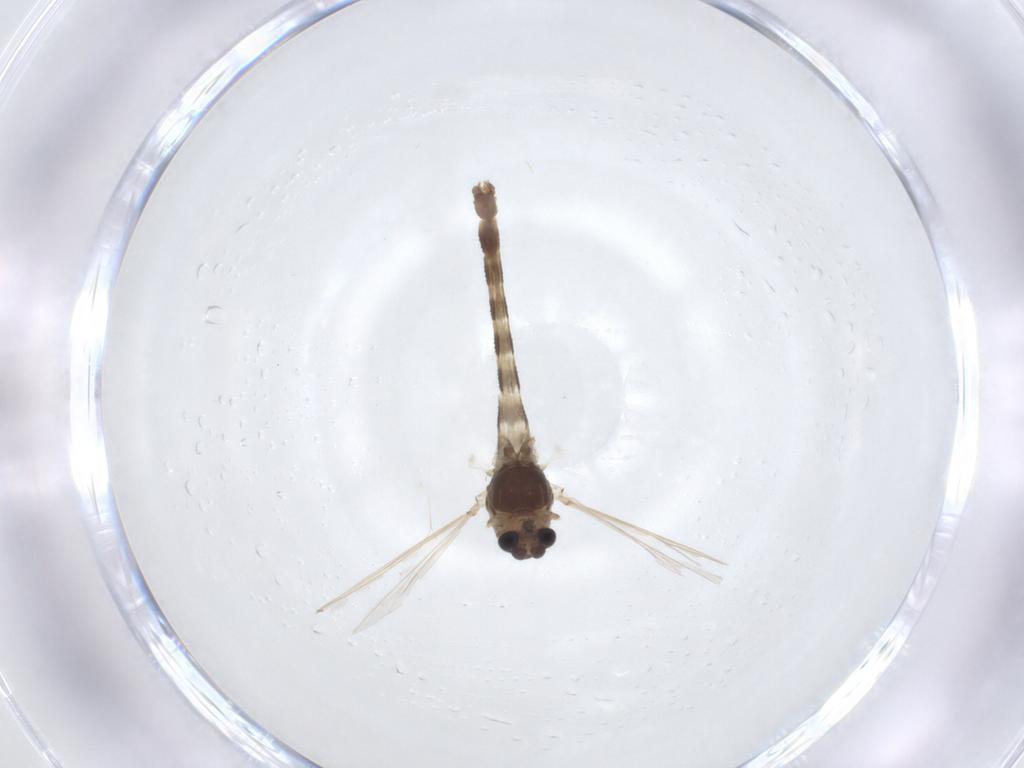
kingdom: Animalia
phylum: Arthropoda
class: Insecta
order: Diptera
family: Chironomidae
